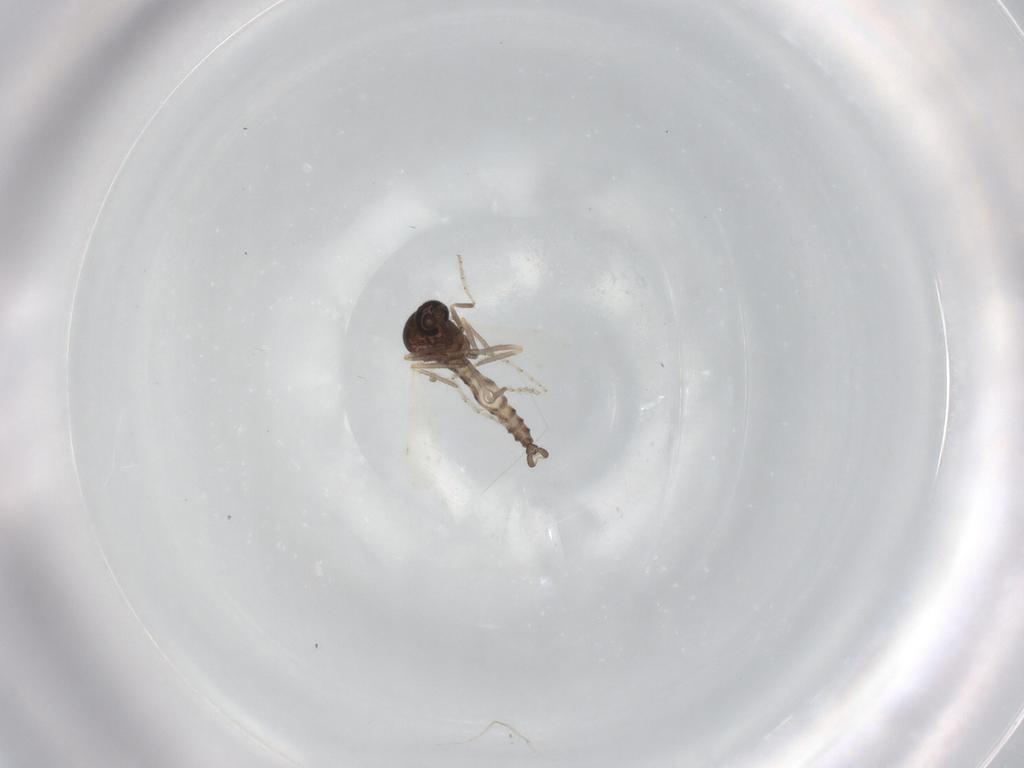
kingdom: Animalia
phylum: Arthropoda
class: Insecta
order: Diptera
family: Ceratopogonidae
